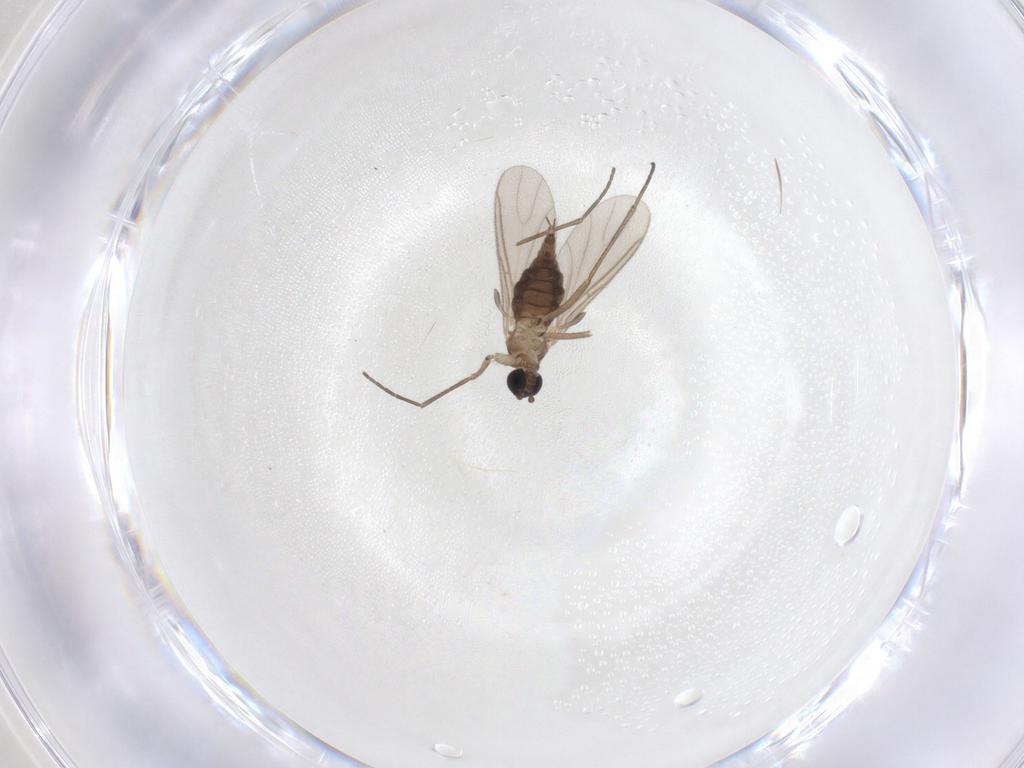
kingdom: Animalia
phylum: Arthropoda
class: Insecta
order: Diptera
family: Sciaridae
